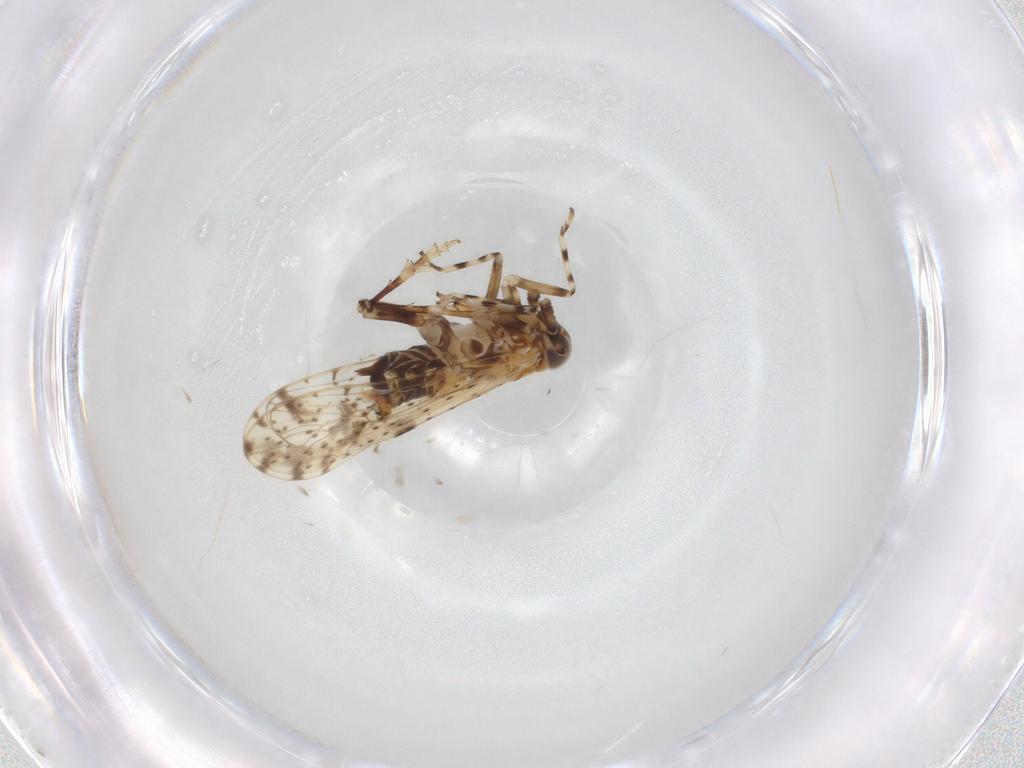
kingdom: Animalia
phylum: Arthropoda
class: Insecta
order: Hemiptera
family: Delphacidae
